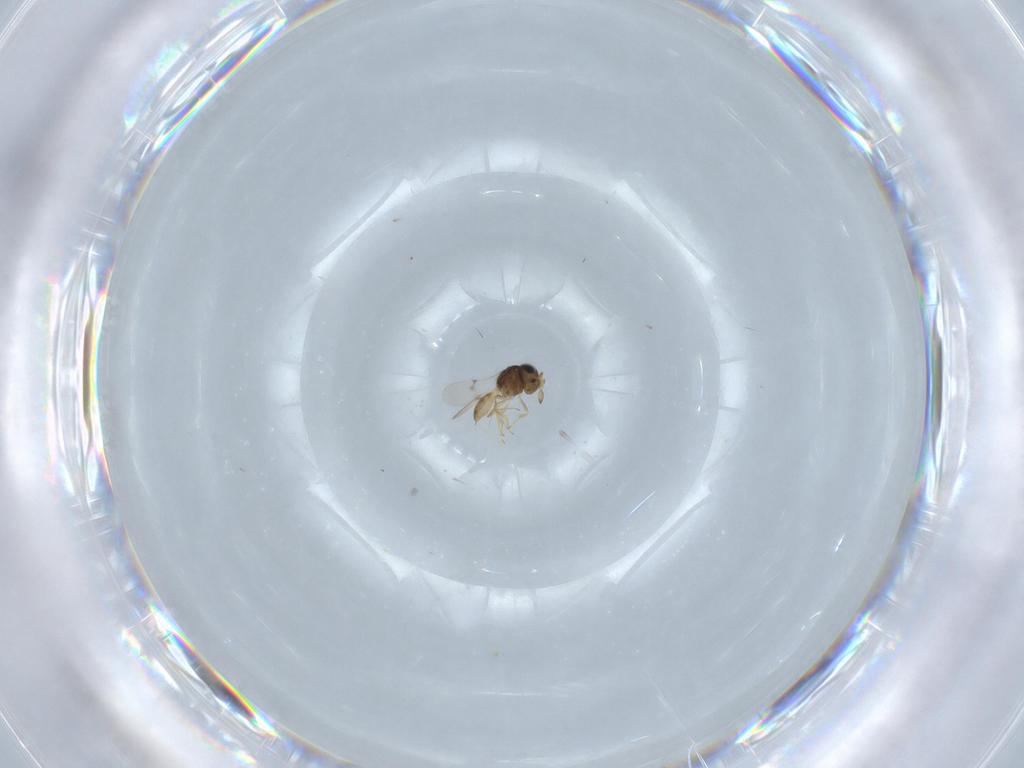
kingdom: Animalia
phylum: Arthropoda
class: Insecta
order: Hymenoptera
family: Scelionidae
